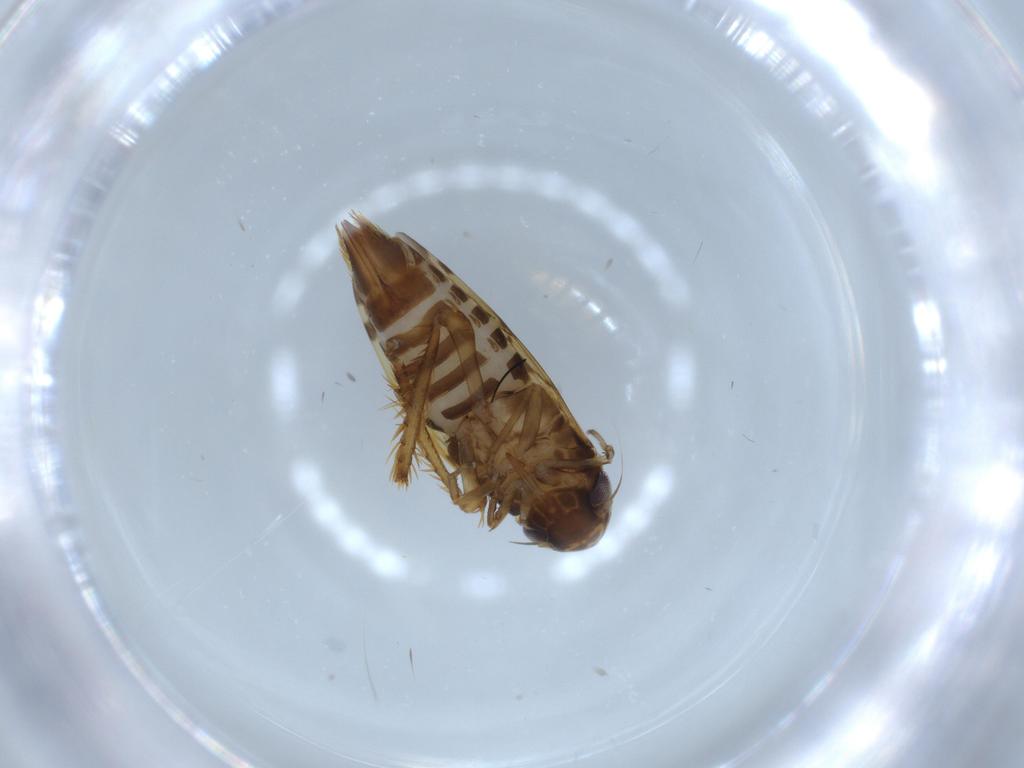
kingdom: Animalia
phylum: Arthropoda
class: Insecta
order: Hemiptera
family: Cicadellidae
